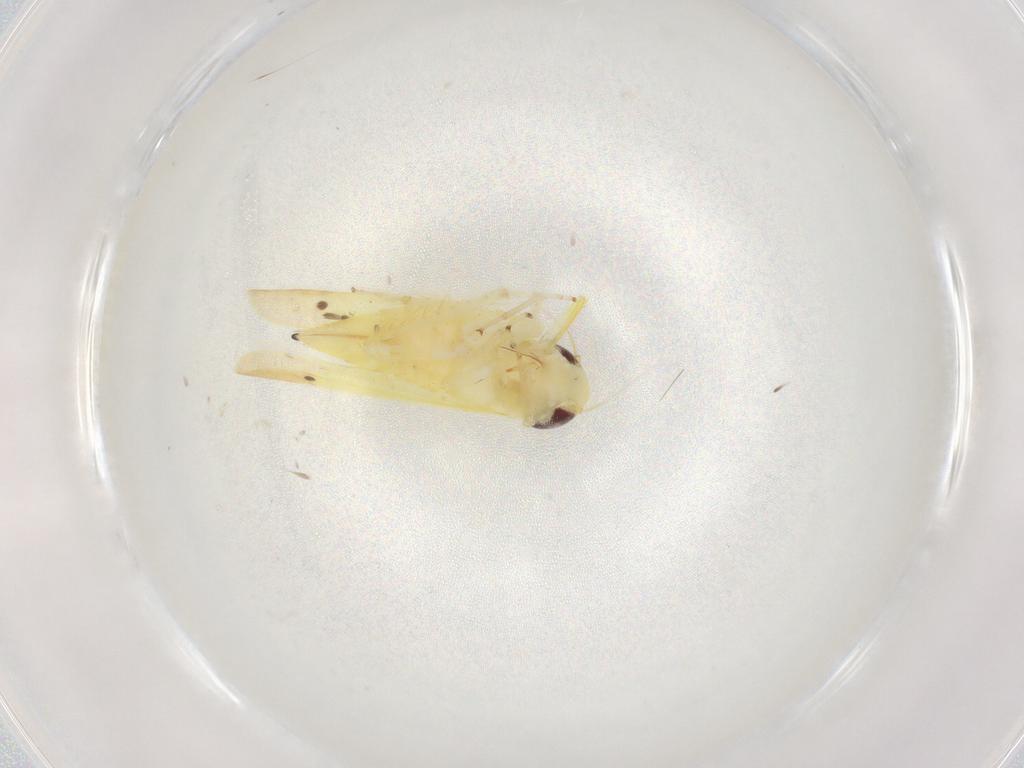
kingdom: Animalia
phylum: Arthropoda
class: Insecta
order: Hemiptera
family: Cicadellidae
